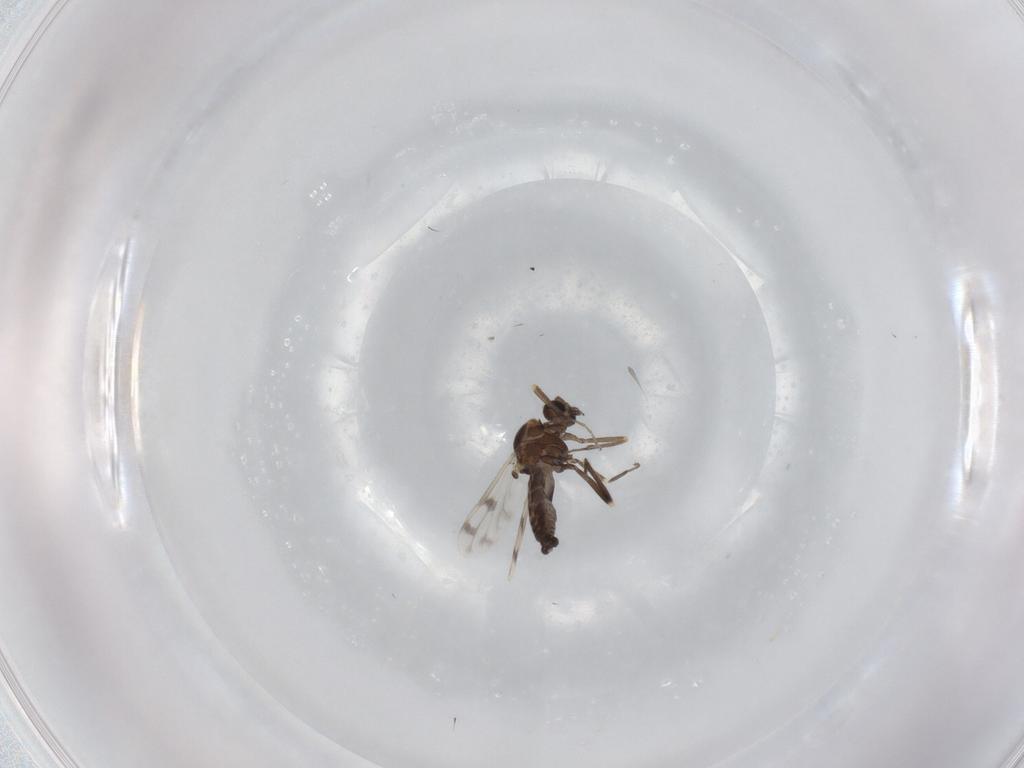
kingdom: Animalia
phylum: Arthropoda
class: Insecta
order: Diptera
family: Ceratopogonidae
